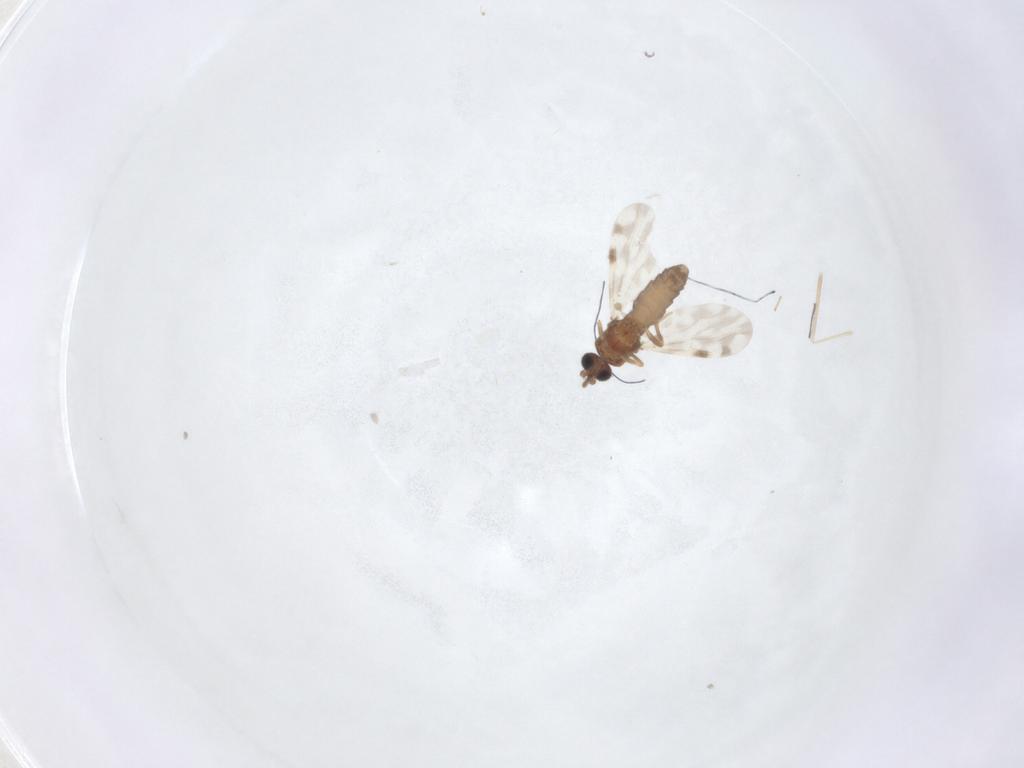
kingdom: Animalia
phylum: Arthropoda
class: Insecta
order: Diptera
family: Cecidomyiidae
